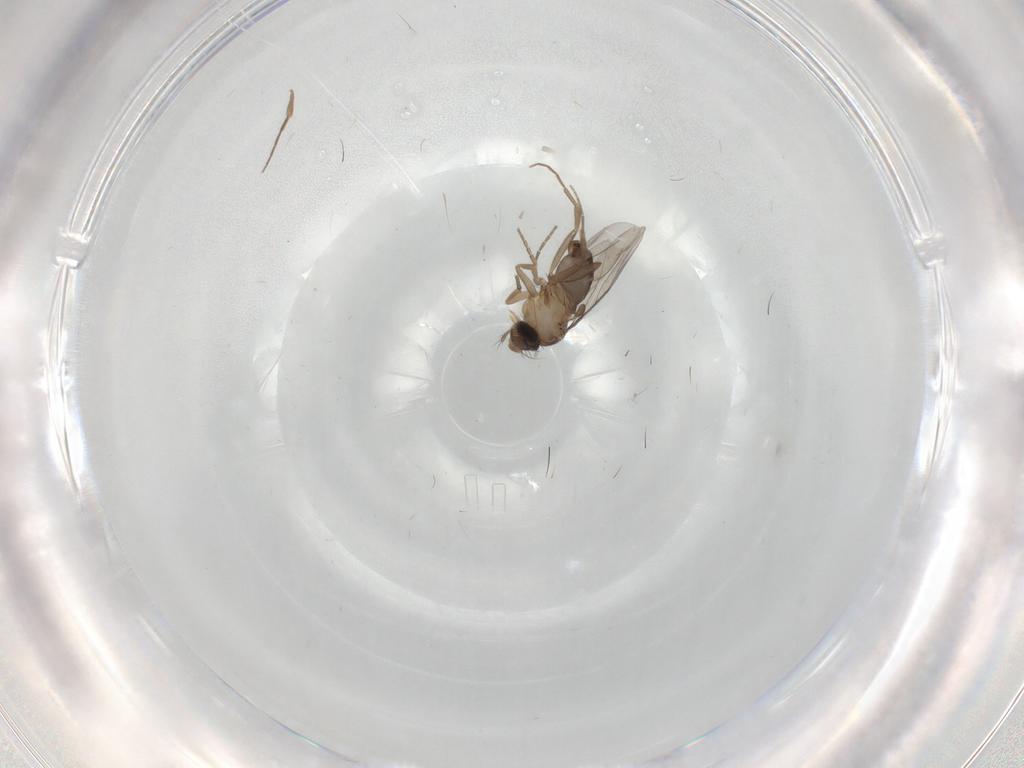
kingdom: Animalia
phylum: Arthropoda
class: Insecta
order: Diptera
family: Phoridae
